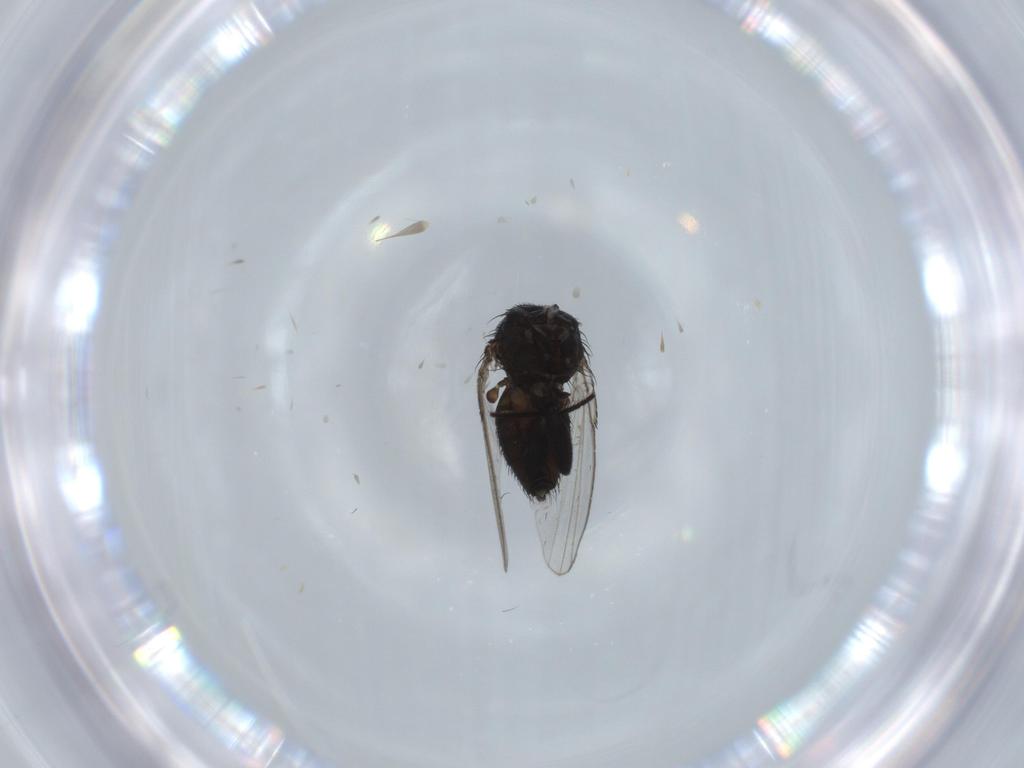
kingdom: Animalia
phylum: Arthropoda
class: Insecta
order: Diptera
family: Milichiidae
